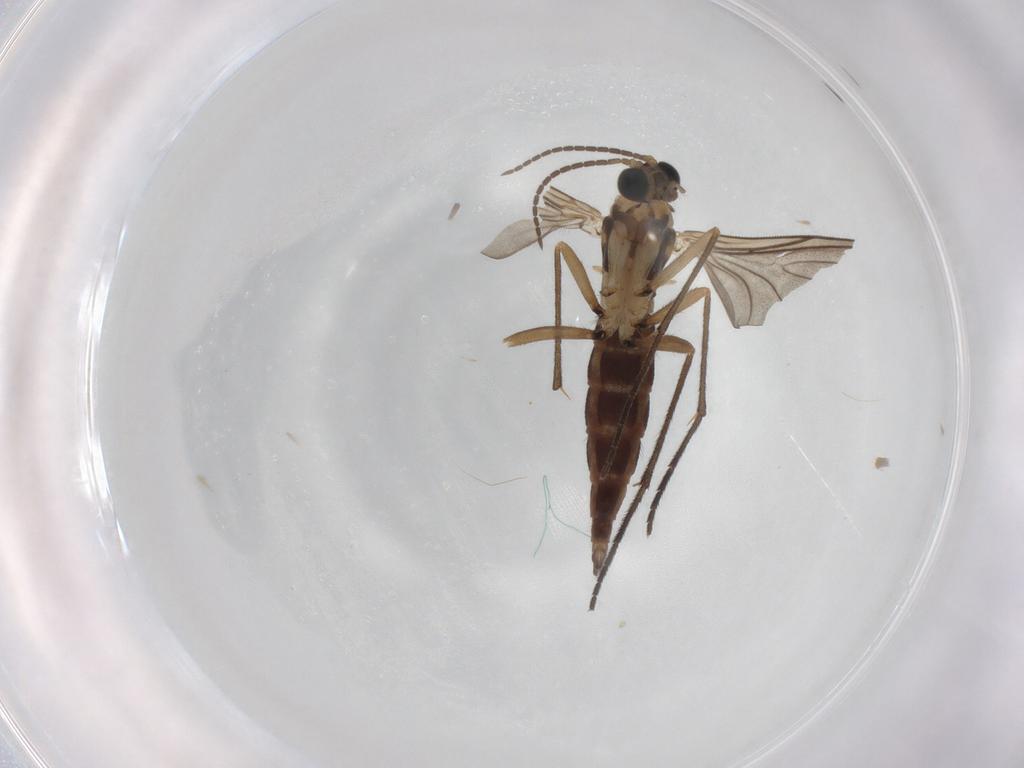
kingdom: Animalia
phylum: Arthropoda
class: Insecta
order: Diptera
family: Sciaridae
